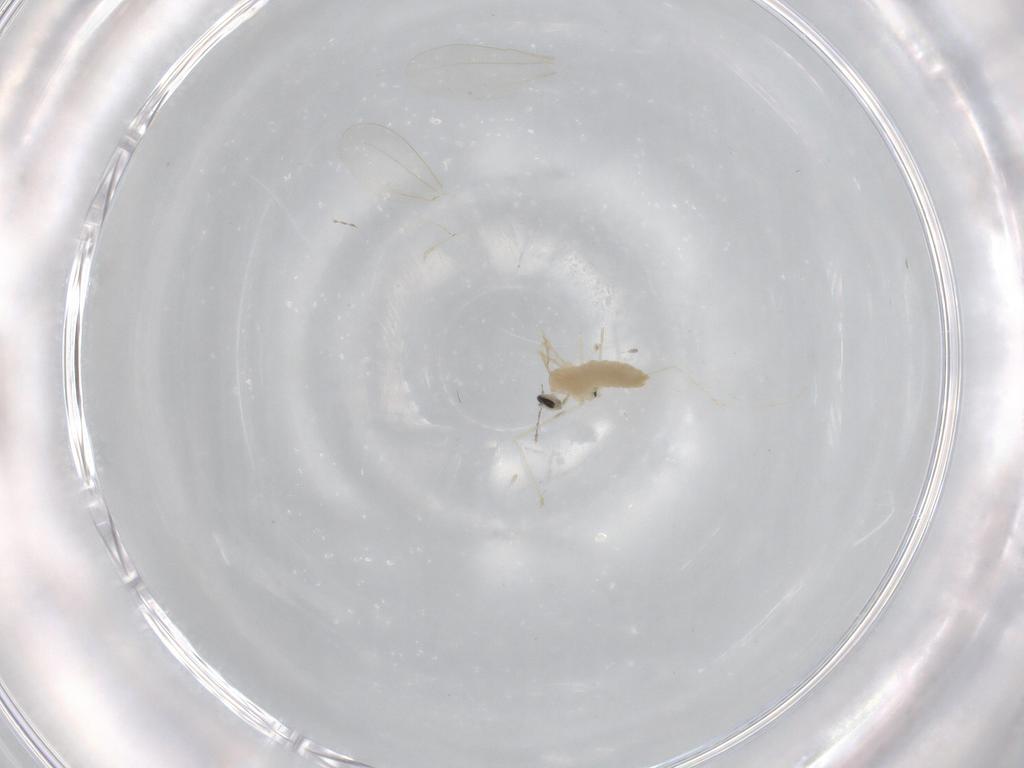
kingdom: Animalia
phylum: Arthropoda
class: Insecta
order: Diptera
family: Cecidomyiidae
